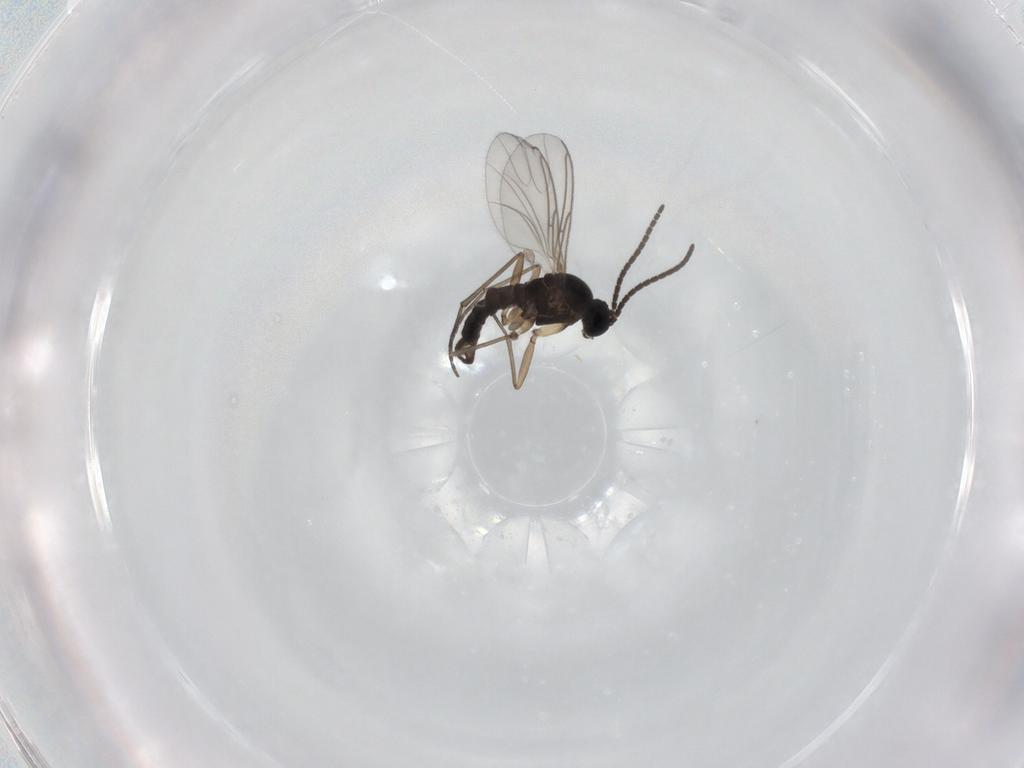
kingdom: Animalia
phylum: Arthropoda
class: Insecta
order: Diptera
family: Sciaridae
